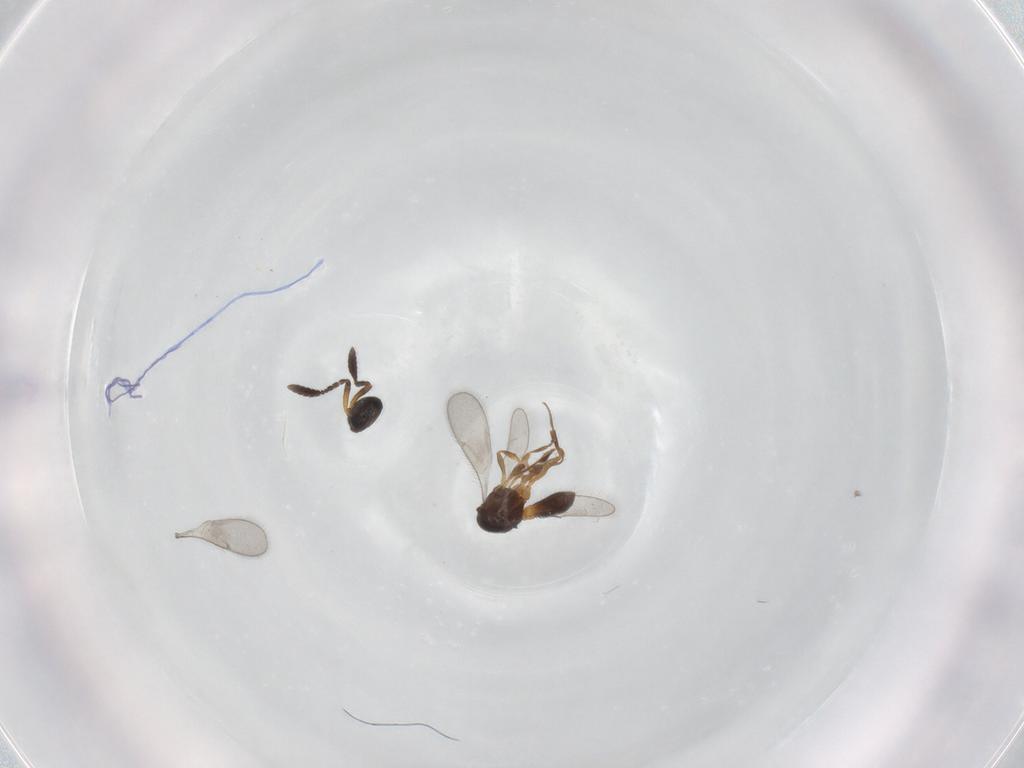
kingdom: Animalia
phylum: Arthropoda
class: Insecta
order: Hymenoptera
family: Scelionidae
